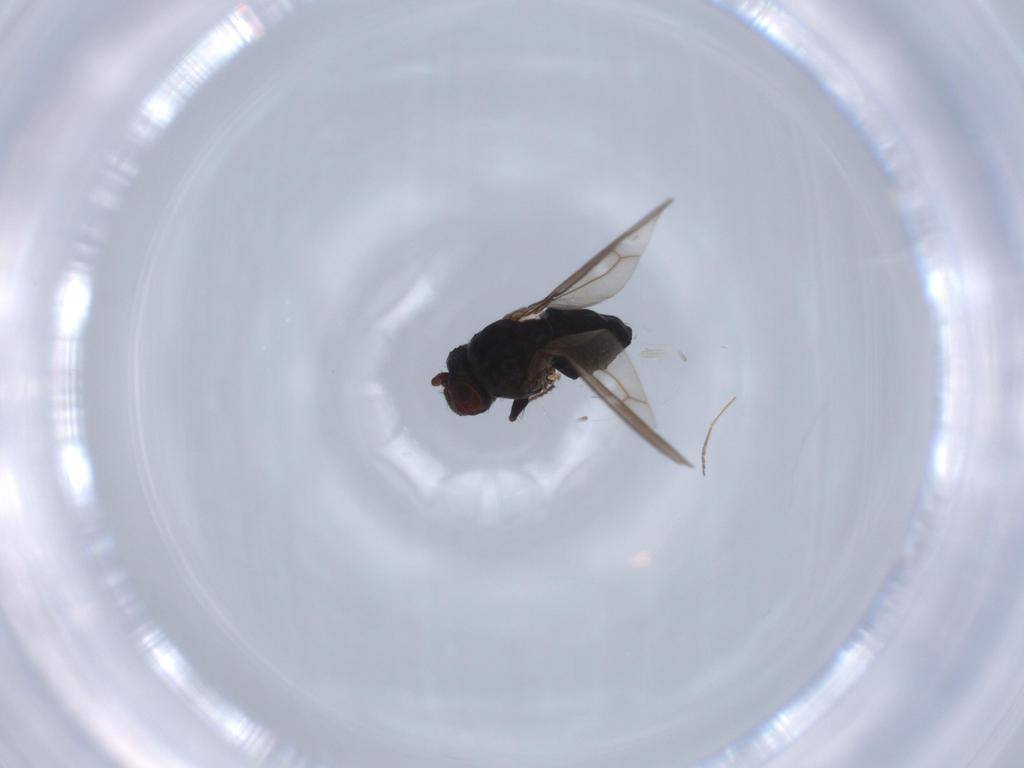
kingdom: Animalia
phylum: Arthropoda
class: Insecta
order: Diptera
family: Ephydridae
